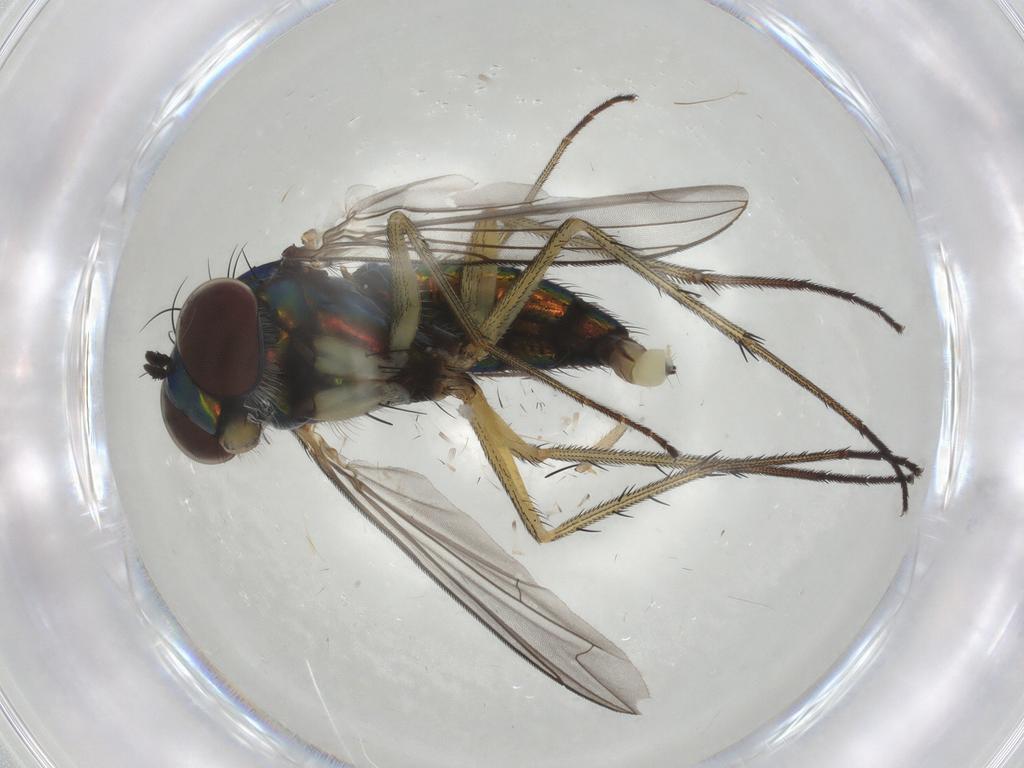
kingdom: Animalia
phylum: Arthropoda
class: Insecta
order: Diptera
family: Dolichopodidae
